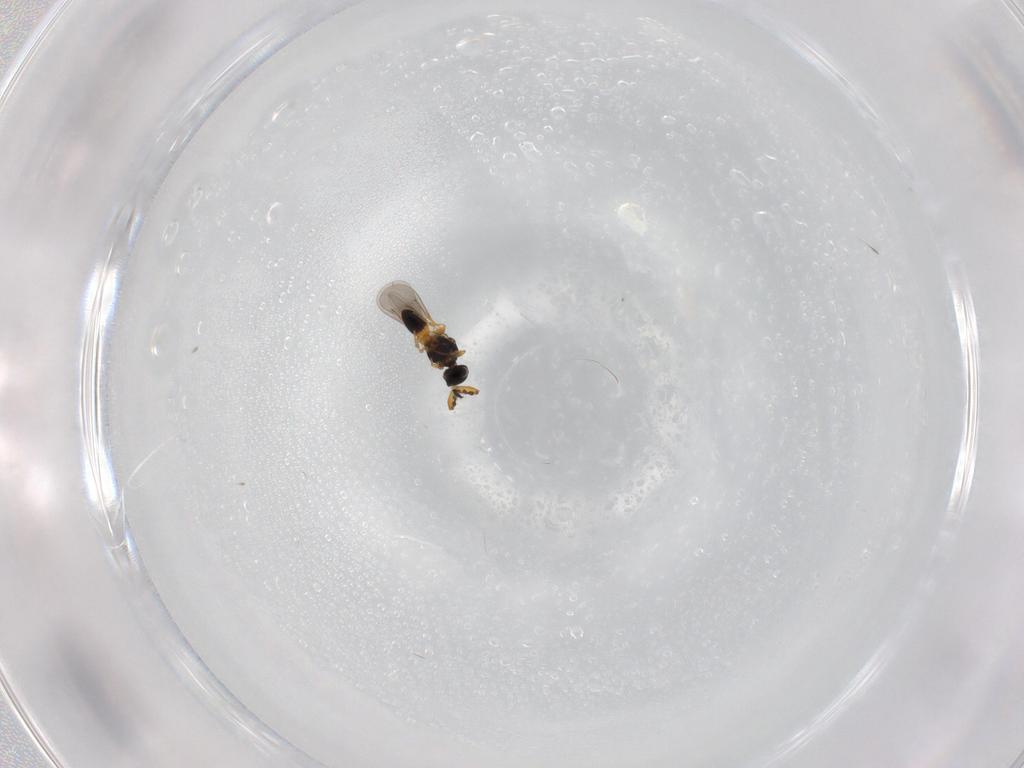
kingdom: Animalia
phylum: Arthropoda
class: Insecta
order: Hymenoptera
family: Platygastridae
